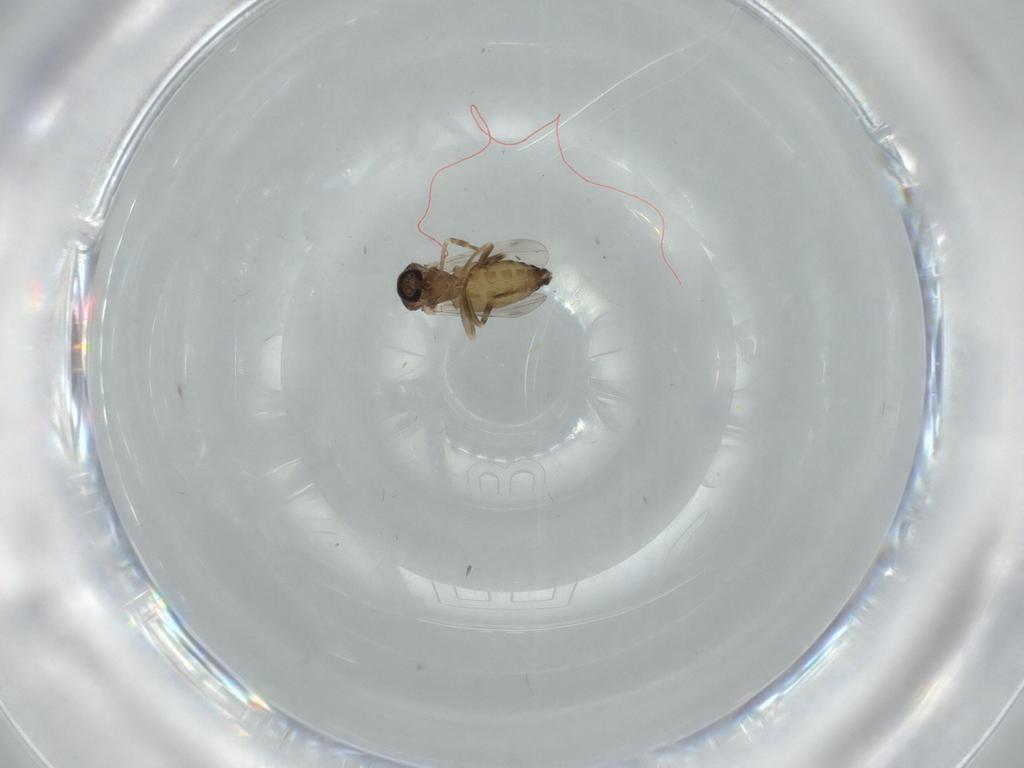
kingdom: Animalia
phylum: Arthropoda
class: Insecta
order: Diptera
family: Ceratopogonidae
